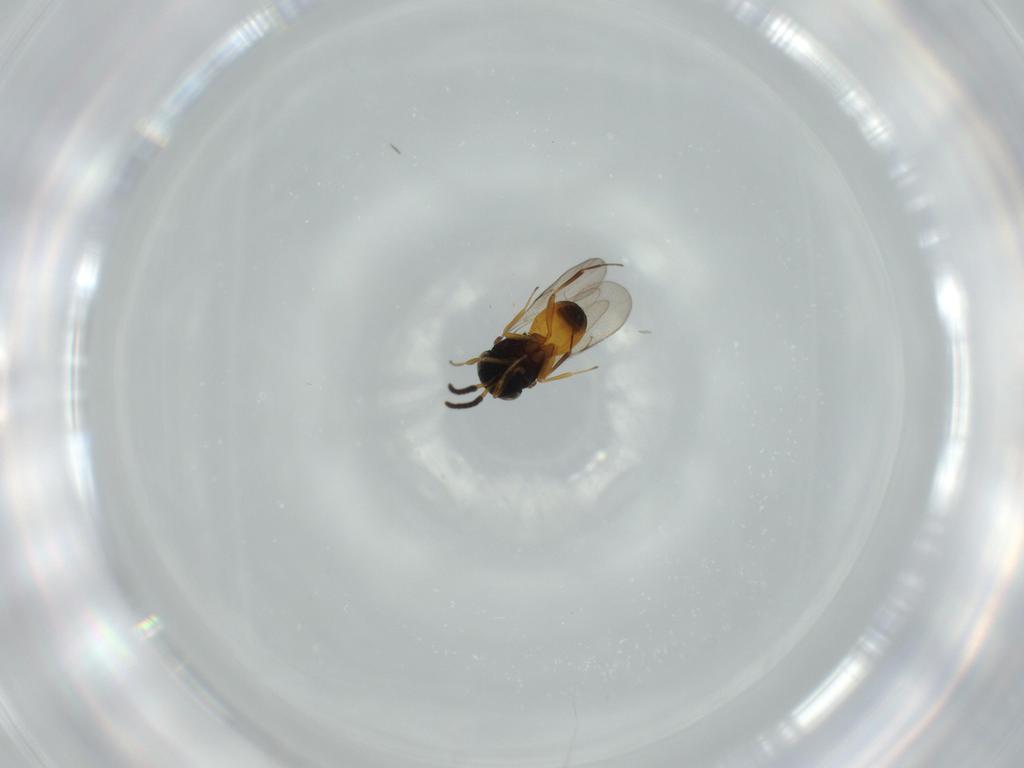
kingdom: Animalia
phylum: Arthropoda
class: Insecta
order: Hymenoptera
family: Scelionidae
